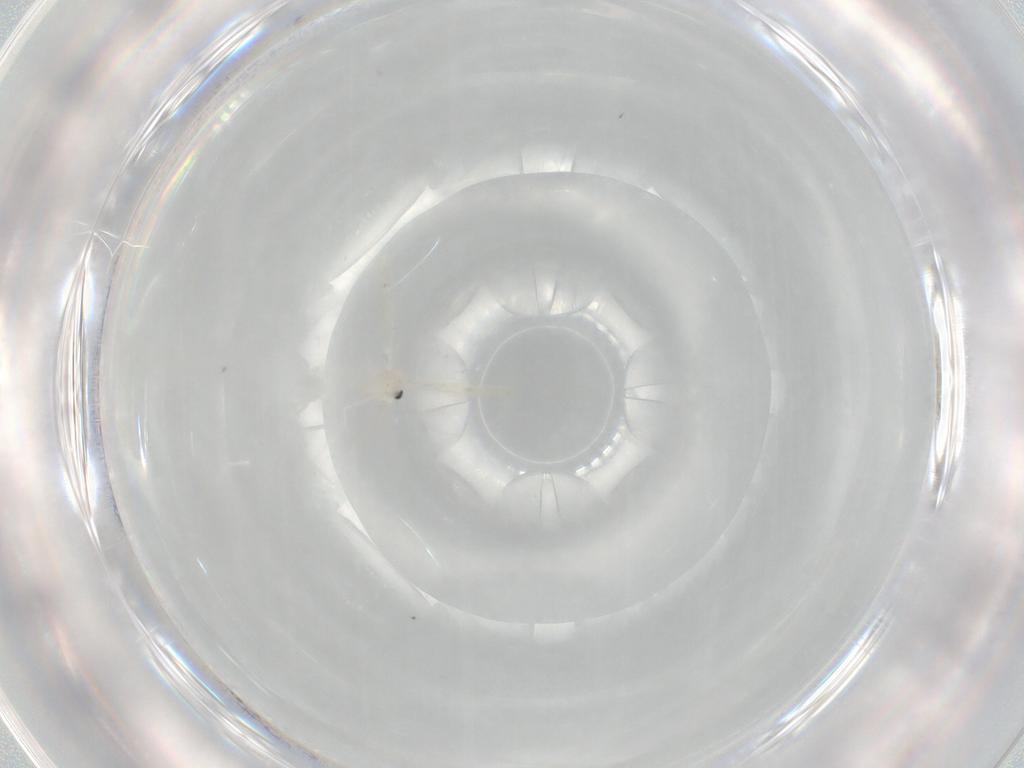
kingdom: Animalia
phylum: Arthropoda
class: Insecta
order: Diptera
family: Cecidomyiidae
